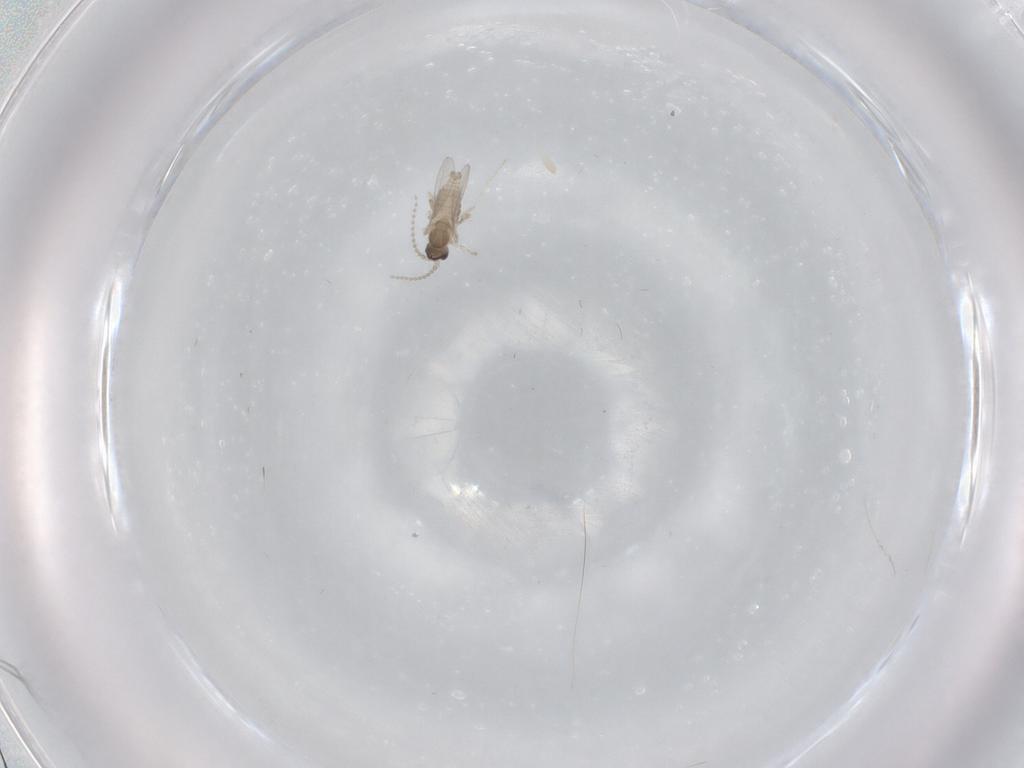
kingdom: Animalia
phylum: Arthropoda
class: Insecta
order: Diptera
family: Cecidomyiidae
